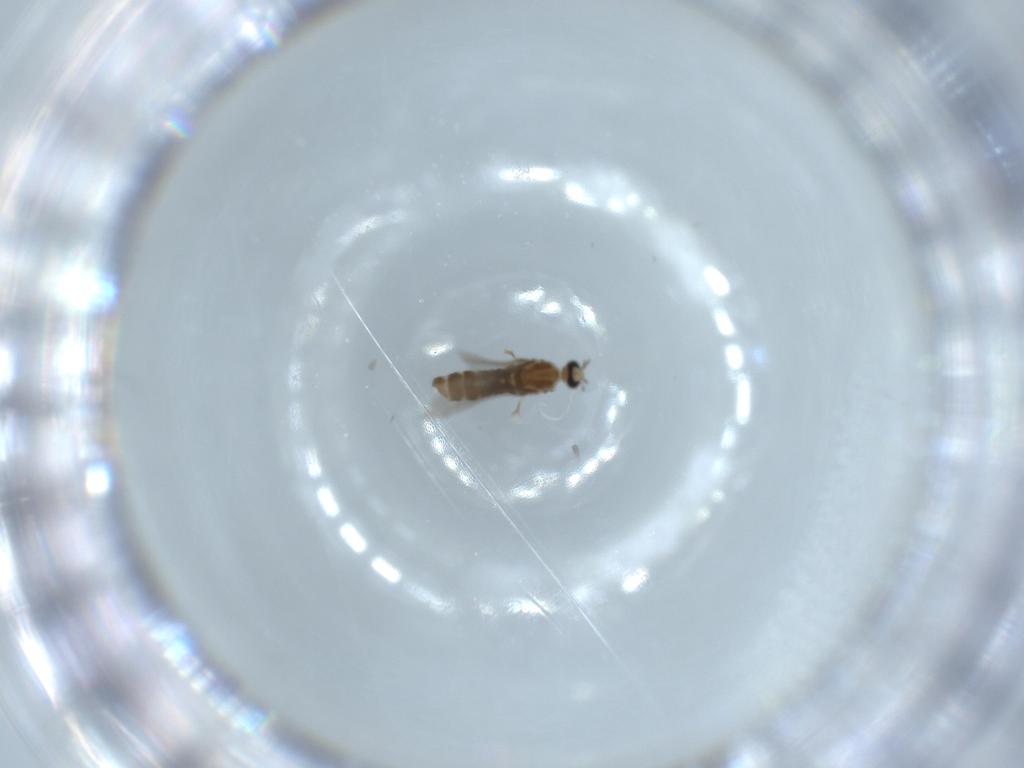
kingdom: Animalia
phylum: Arthropoda
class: Insecta
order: Diptera
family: Cecidomyiidae
